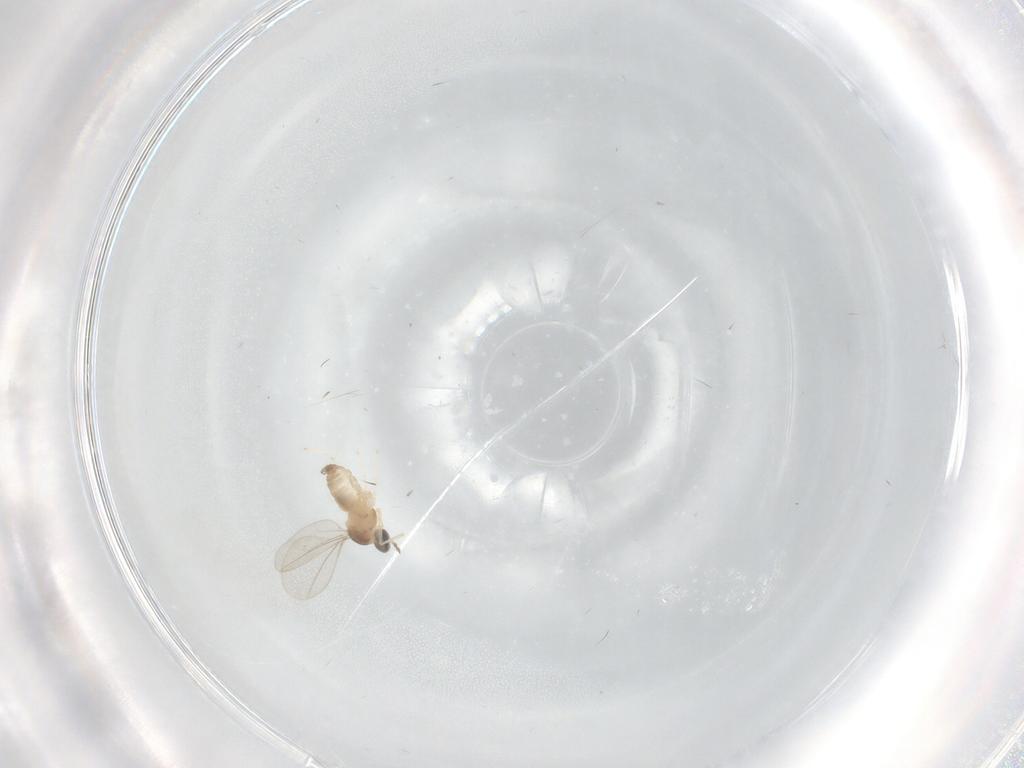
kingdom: Animalia
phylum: Arthropoda
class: Insecta
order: Diptera
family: Cecidomyiidae
